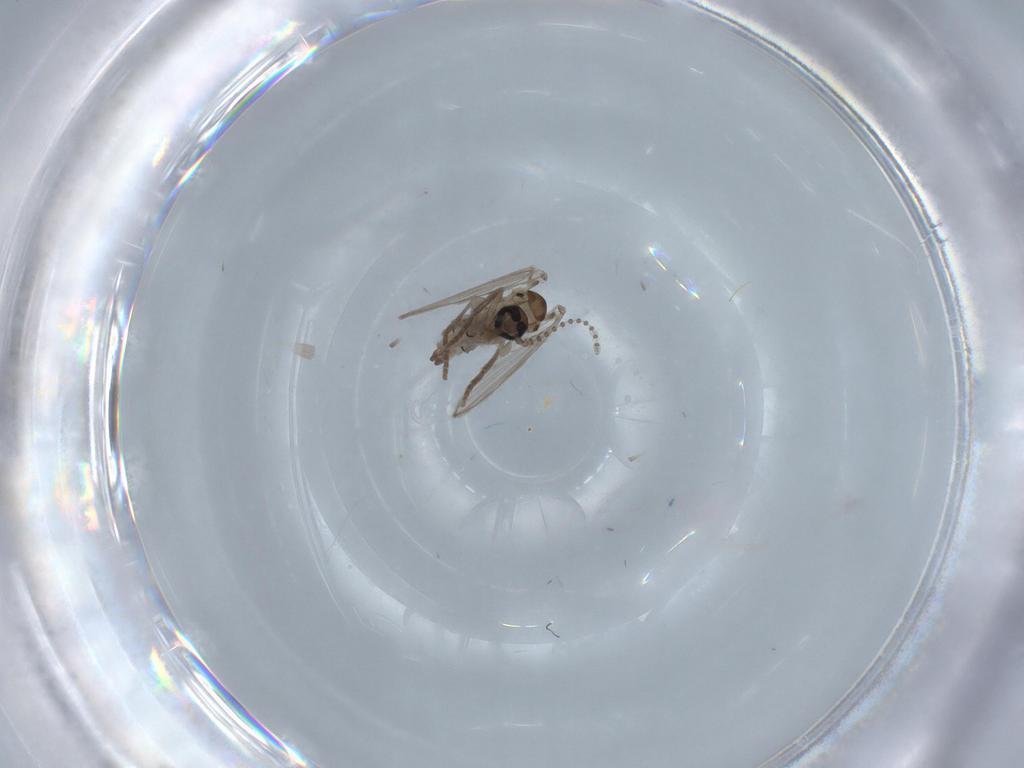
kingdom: Animalia
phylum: Arthropoda
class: Insecta
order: Diptera
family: Psychodidae
